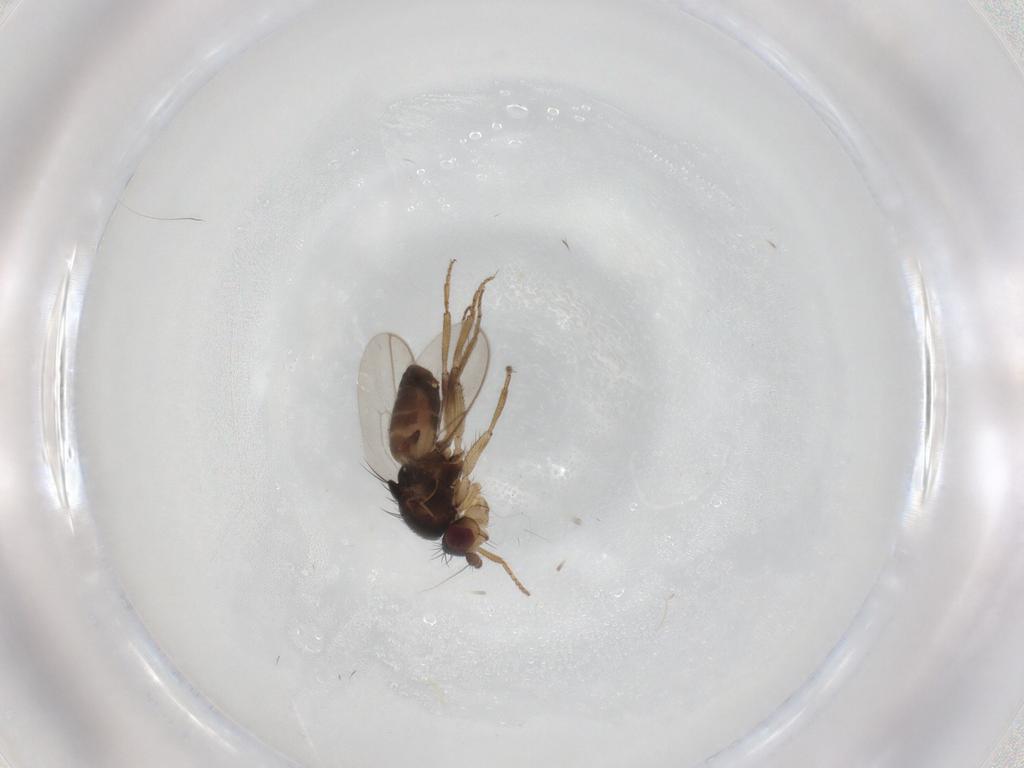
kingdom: Animalia
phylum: Arthropoda
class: Insecta
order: Diptera
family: Sphaeroceridae
